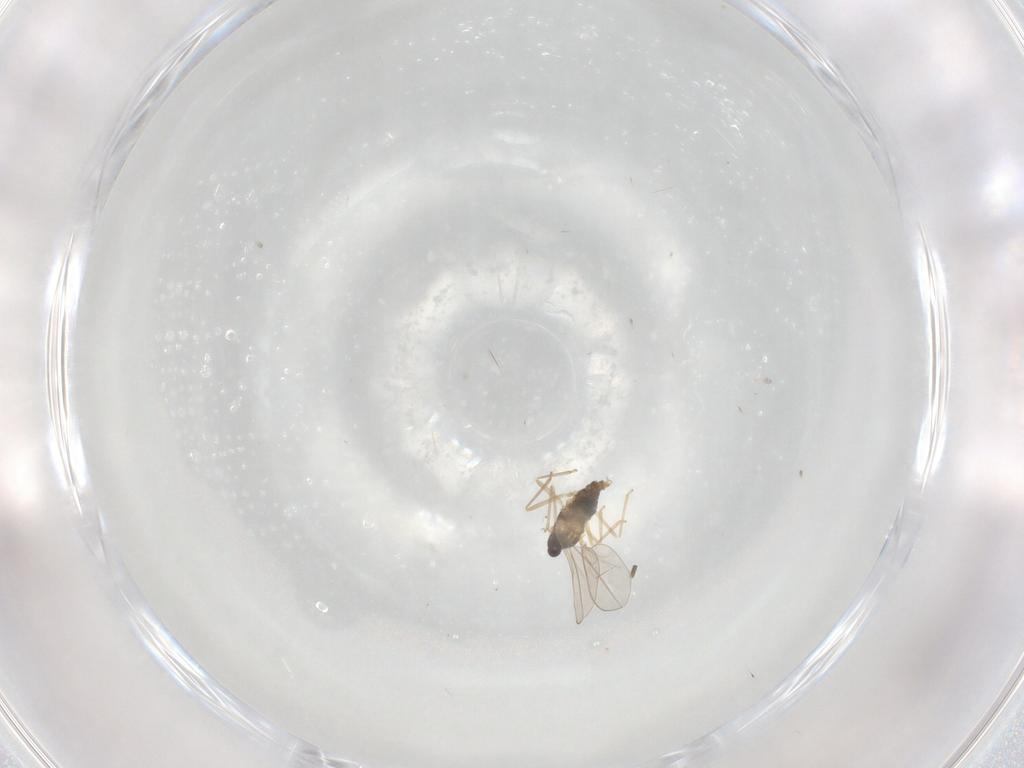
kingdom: Animalia
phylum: Arthropoda
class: Insecta
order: Diptera
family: Cecidomyiidae
